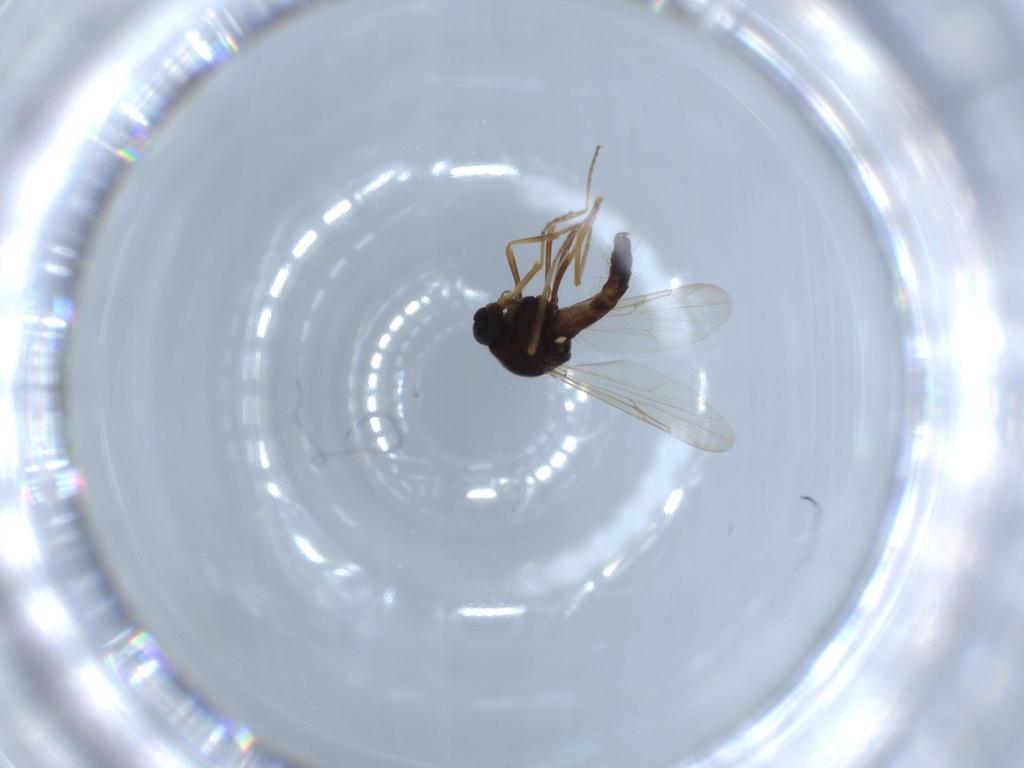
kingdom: Animalia
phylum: Arthropoda
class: Insecta
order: Diptera
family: Ceratopogonidae
